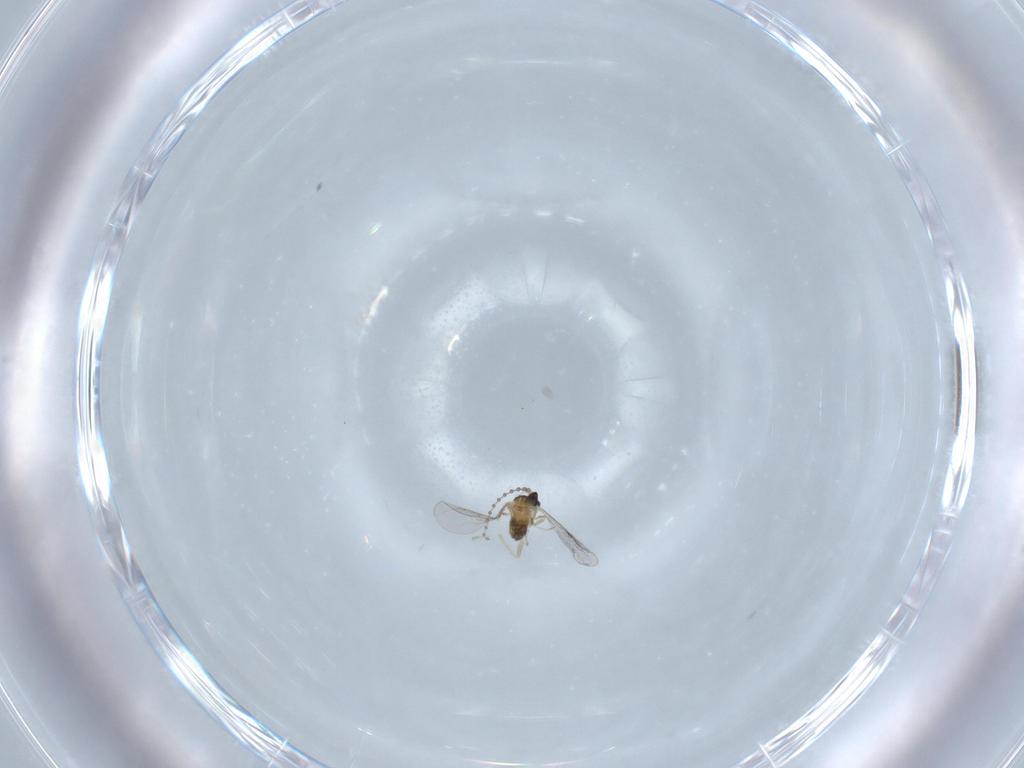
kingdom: Animalia
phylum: Arthropoda
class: Insecta
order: Diptera
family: Cecidomyiidae
